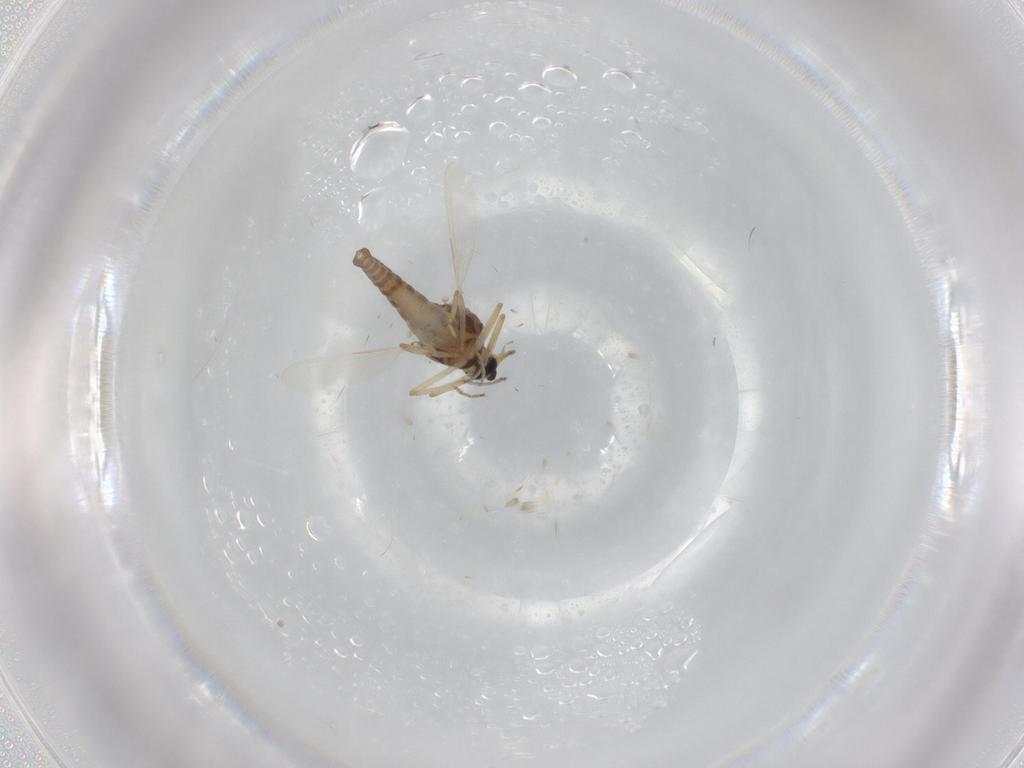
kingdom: Animalia
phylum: Arthropoda
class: Insecta
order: Diptera
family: Ceratopogonidae
